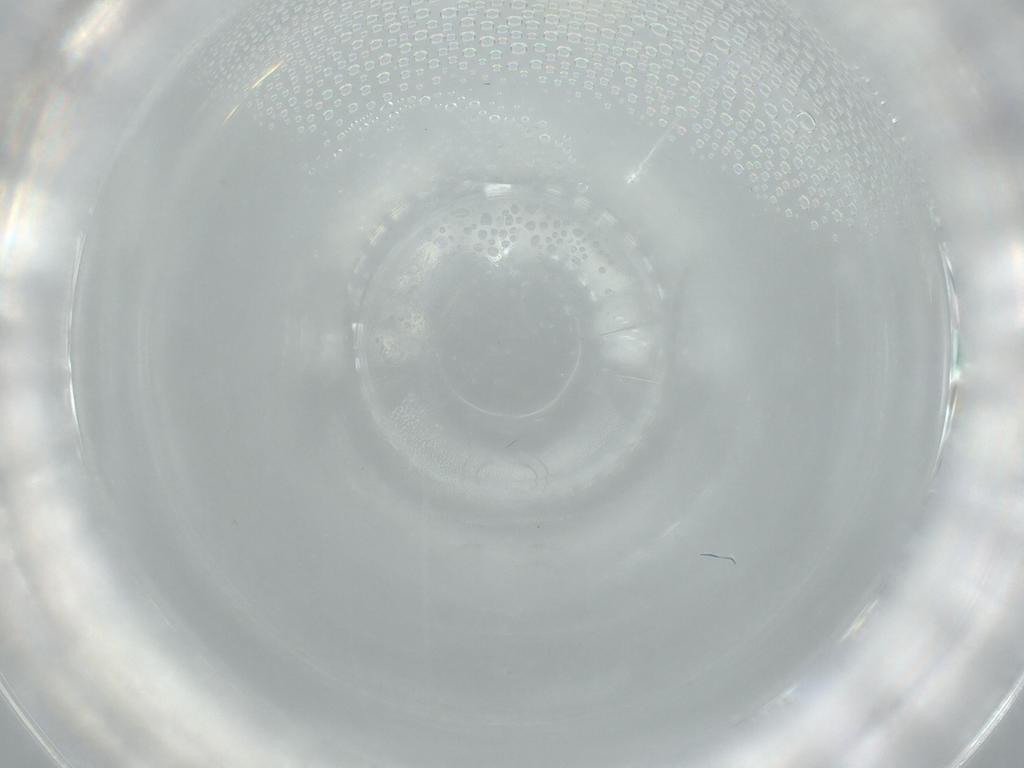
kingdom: Animalia
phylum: Arthropoda
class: Insecta
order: Diptera
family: Cecidomyiidae
